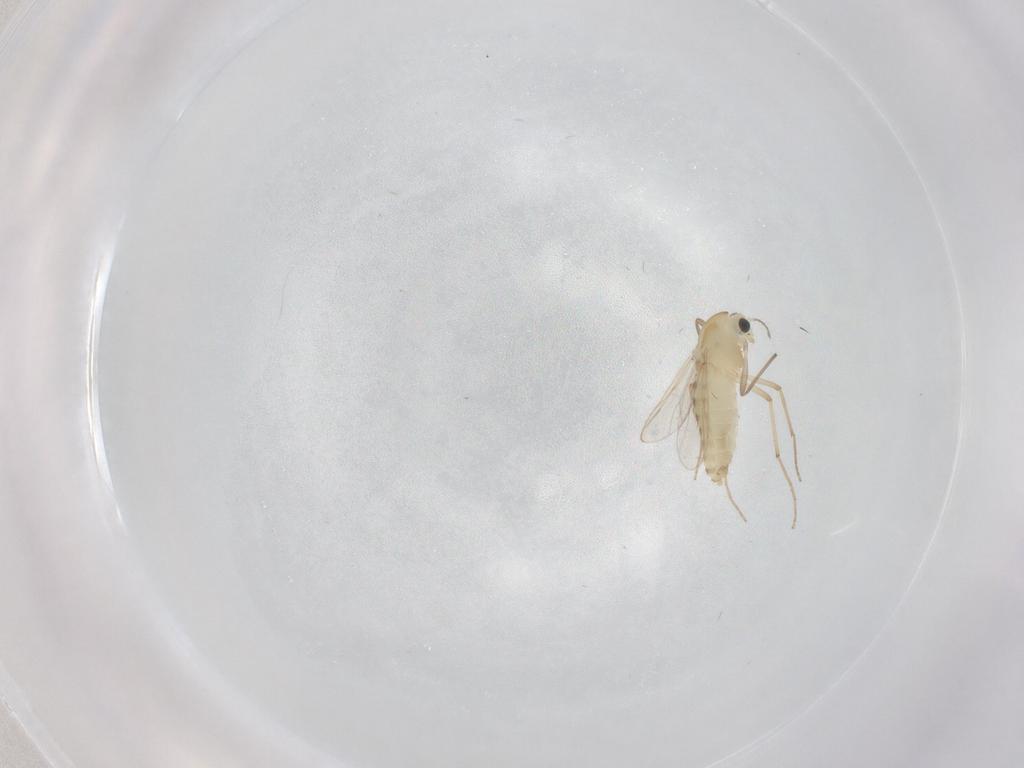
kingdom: Animalia
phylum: Arthropoda
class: Insecta
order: Diptera
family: Chironomidae
